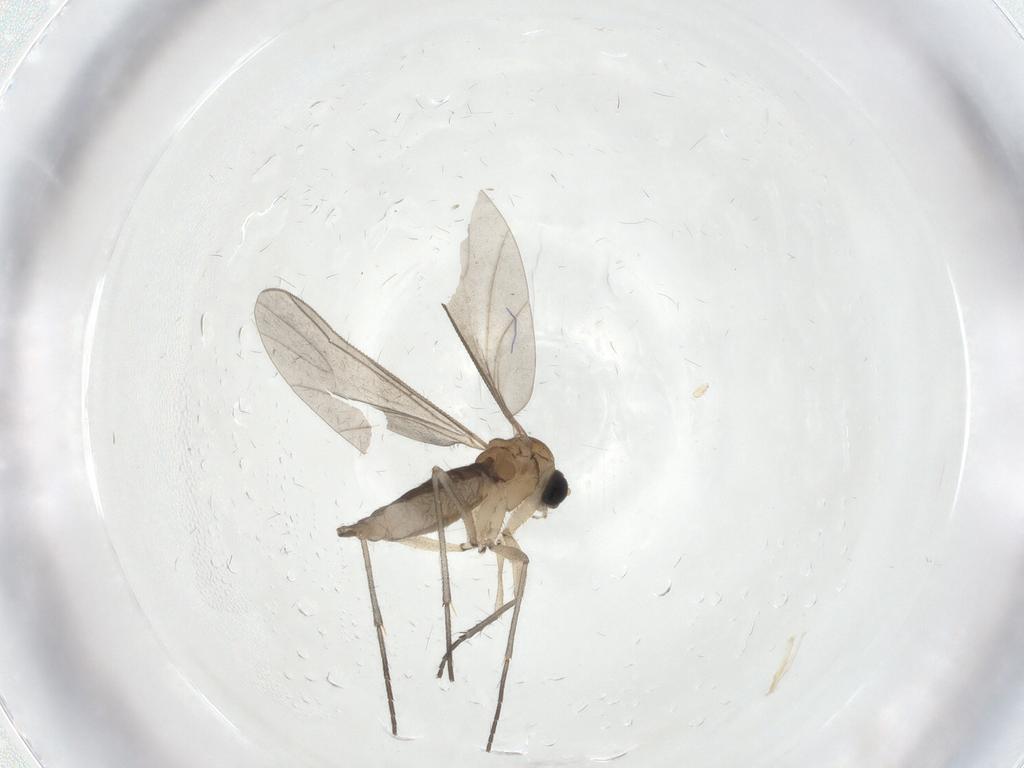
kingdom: Animalia
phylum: Arthropoda
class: Insecta
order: Diptera
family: Sciaridae
